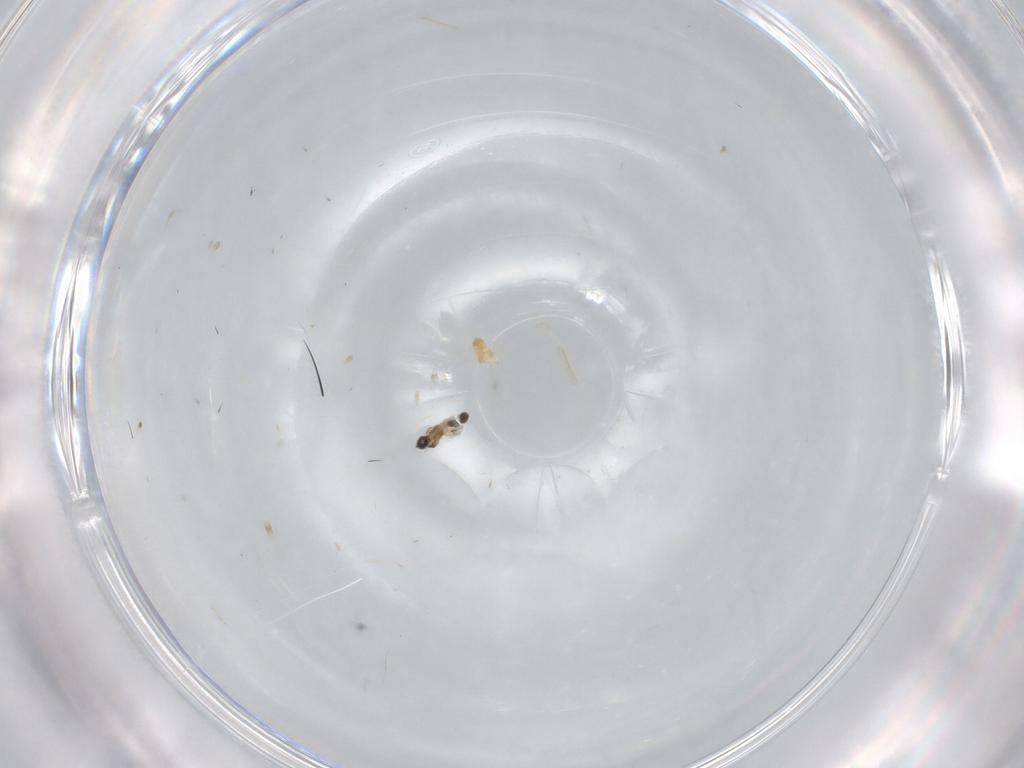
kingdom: Animalia
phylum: Arthropoda
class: Insecta
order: Diptera
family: Cecidomyiidae
